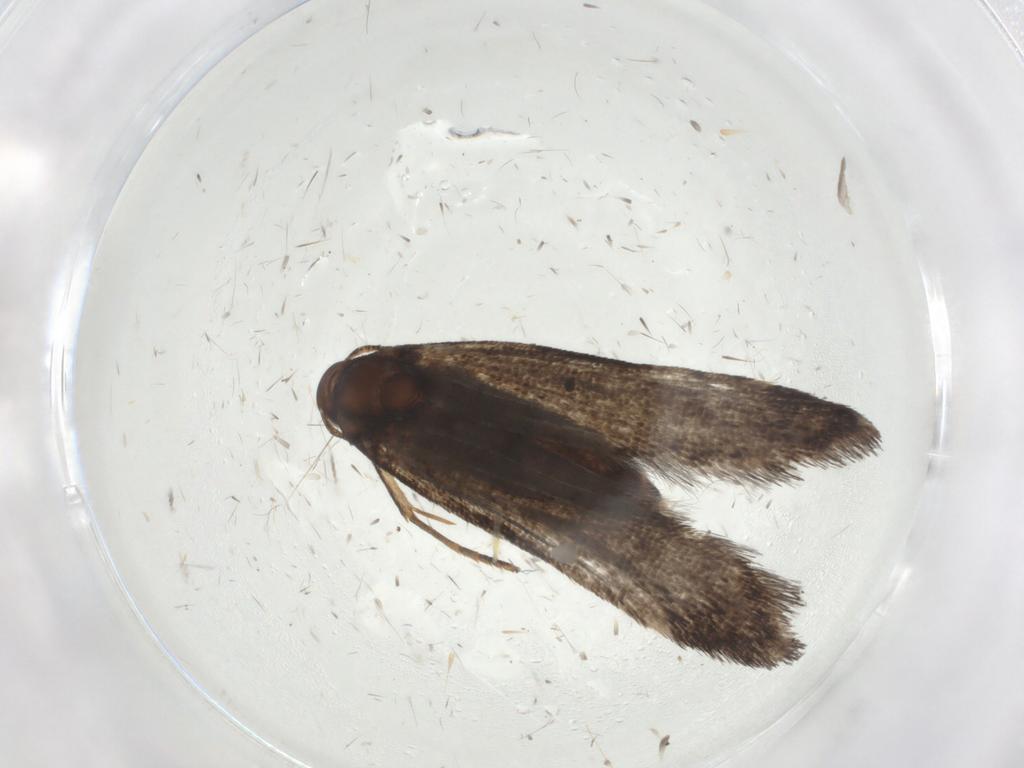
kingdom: Animalia
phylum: Arthropoda
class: Insecta
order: Lepidoptera
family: Noctuidae
